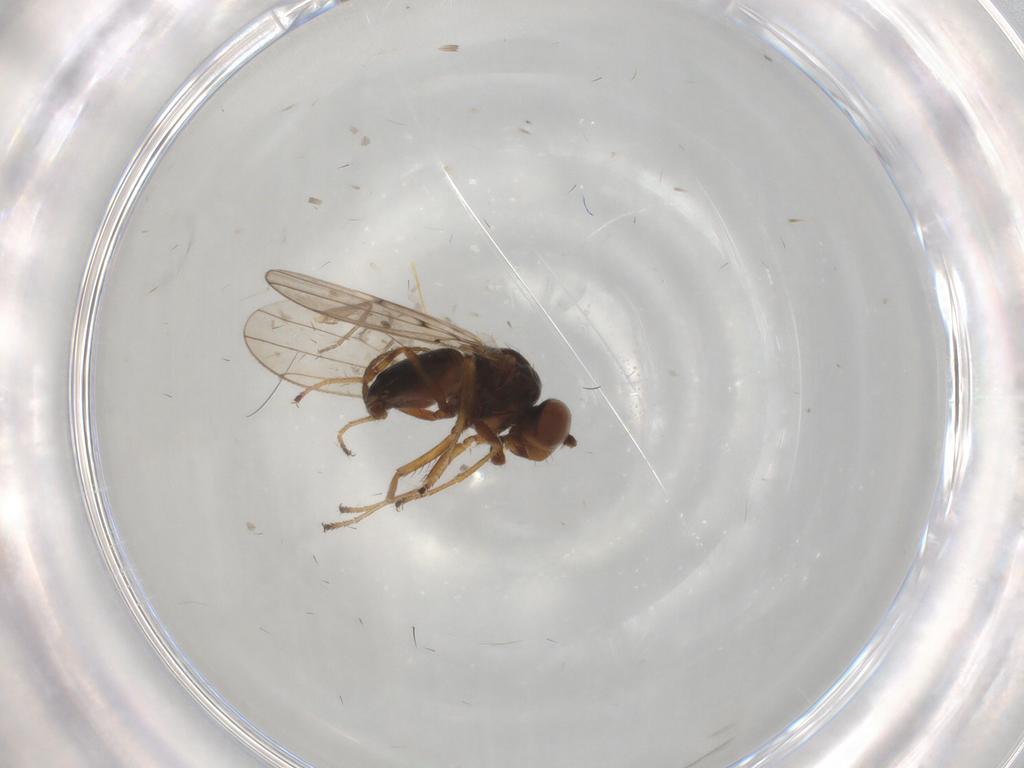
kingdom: Animalia
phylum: Arthropoda
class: Insecta
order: Diptera
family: Sciaridae
